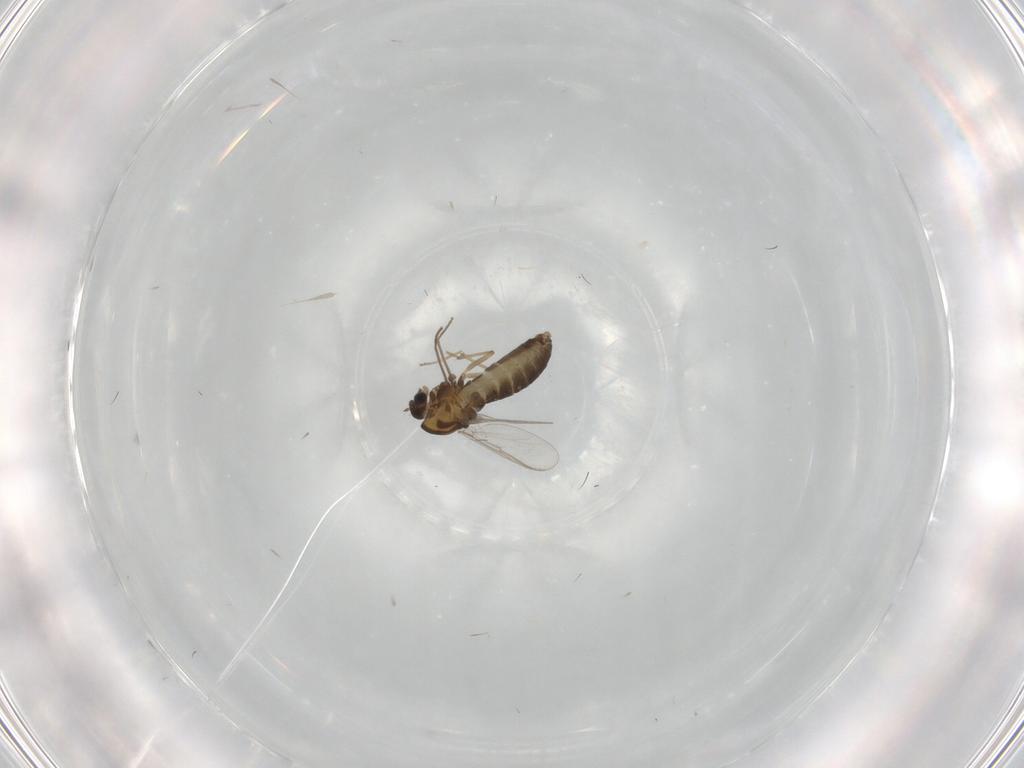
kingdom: Animalia
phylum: Arthropoda
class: Insecta
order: Diptera
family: Chironomidae
